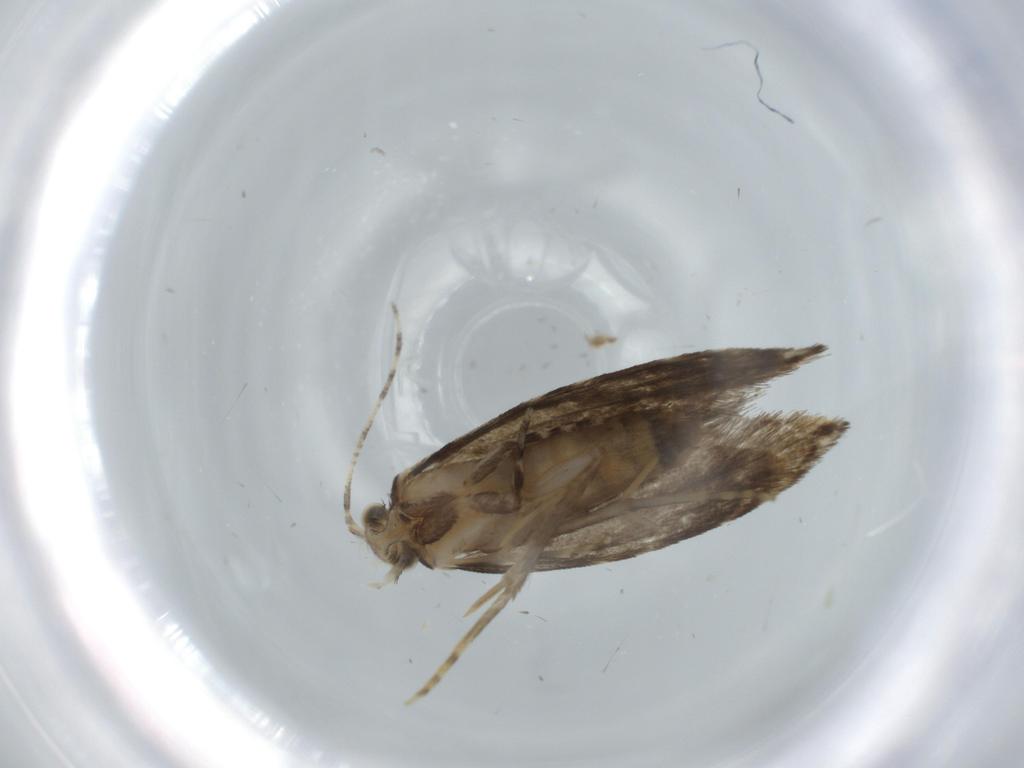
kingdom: Animalia
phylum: Arthropoda
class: Insecta
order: Lepidoptera
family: Tineidae
